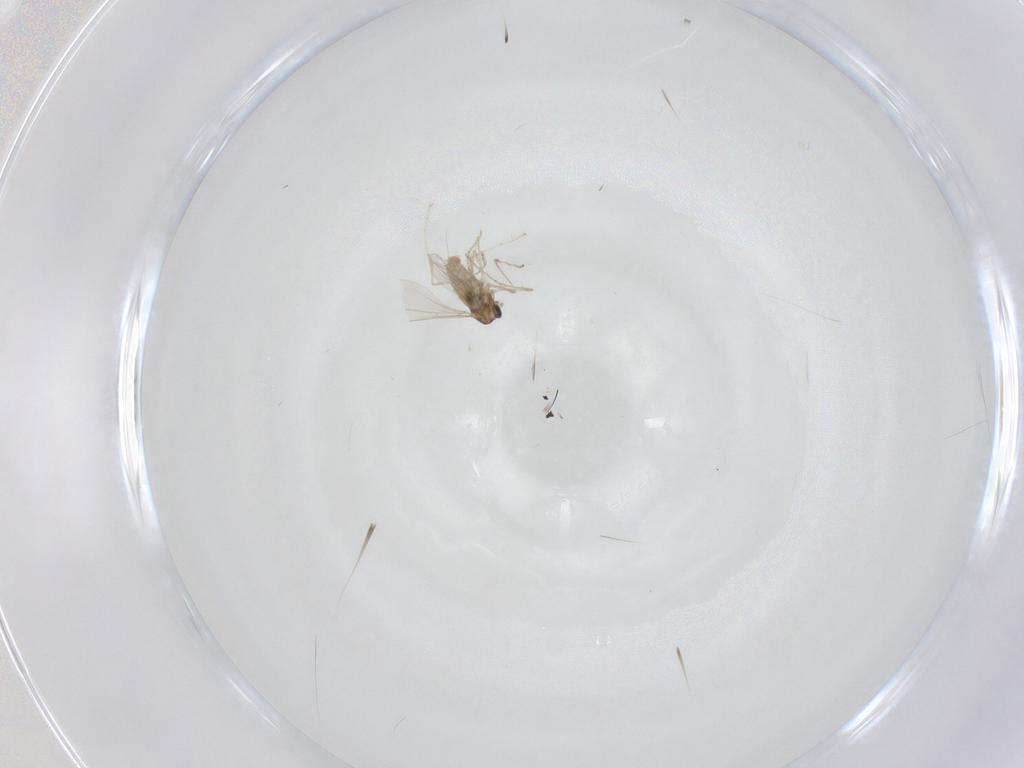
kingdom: Animalia
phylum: Arthropoda
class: Insecta
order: Diptera
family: Cecidomyiidae
